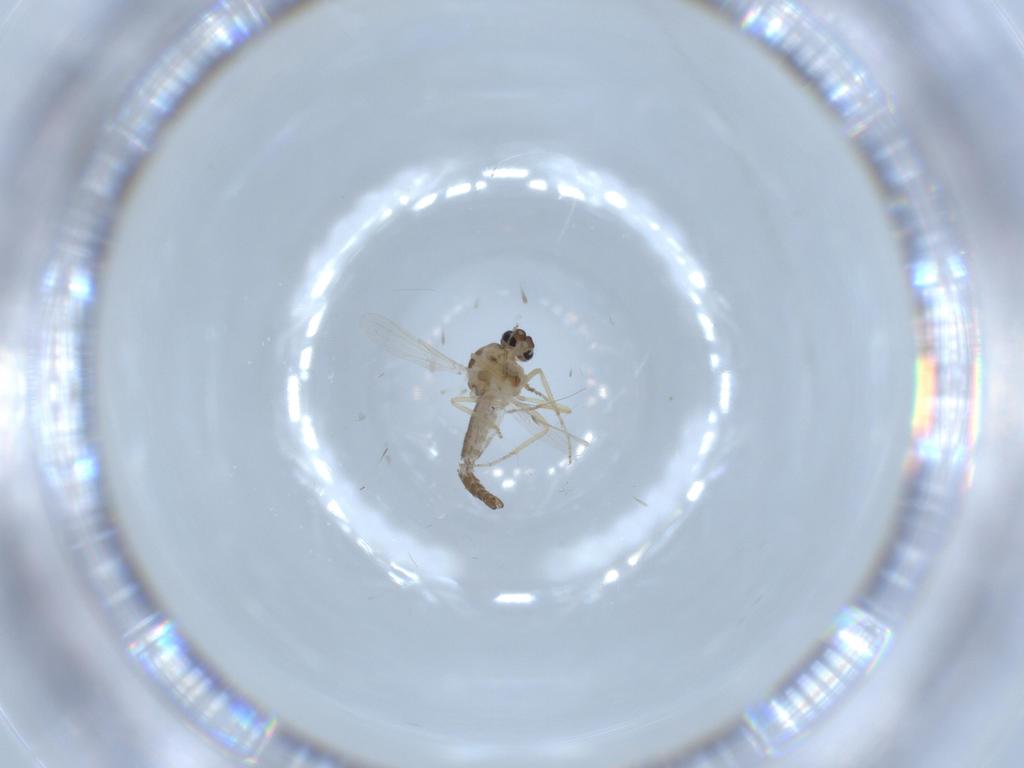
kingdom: Animalia
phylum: Arthropoda
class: Insecta
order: Diptera
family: Ceratopogonidae
